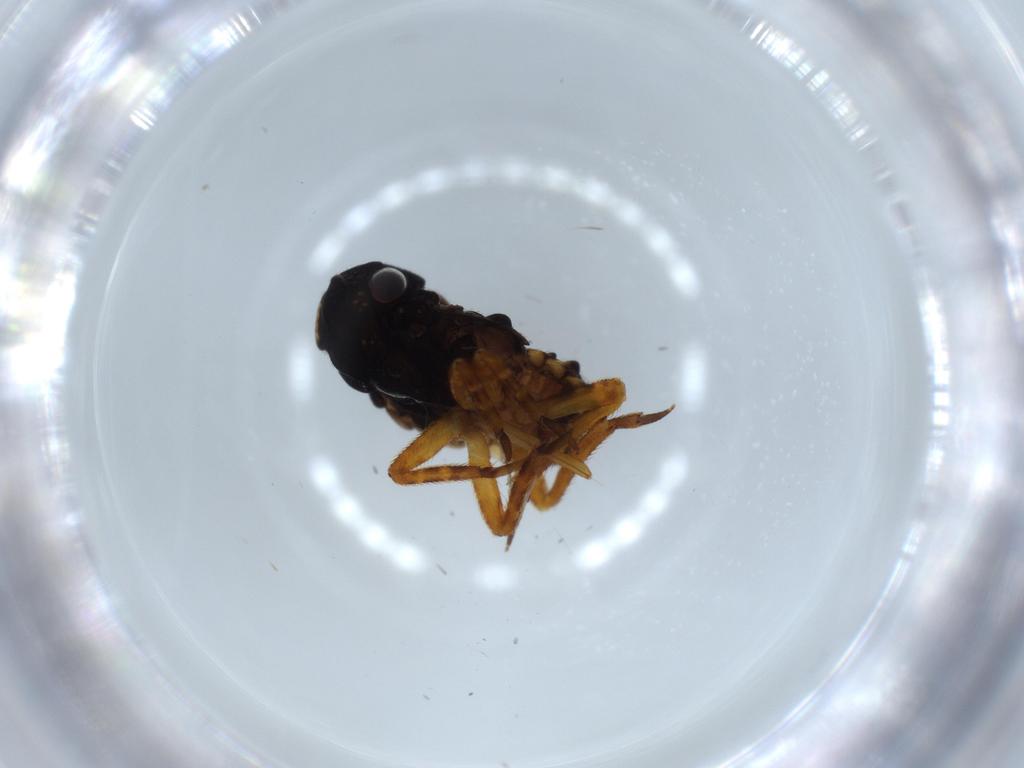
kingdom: Animalia
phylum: Arthropoda
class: Insecta
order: Hemiptera
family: Fulgoridae
